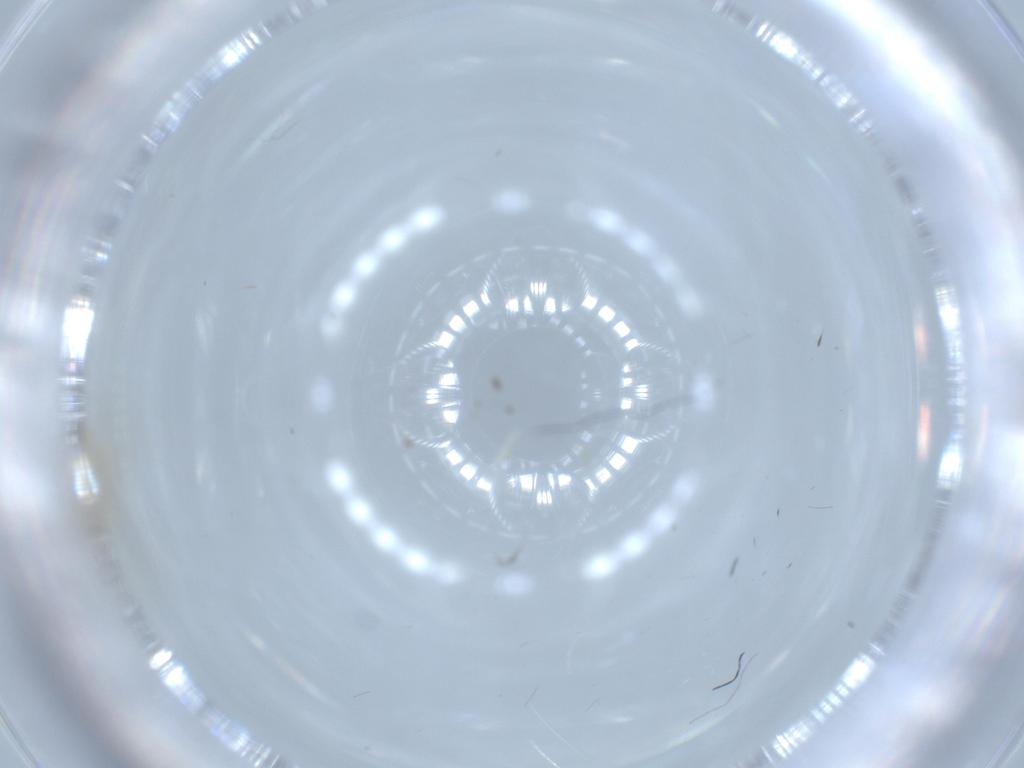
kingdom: Animalia
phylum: Arthropoda
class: Insecta
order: Diptera
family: Cecidomyiidae
